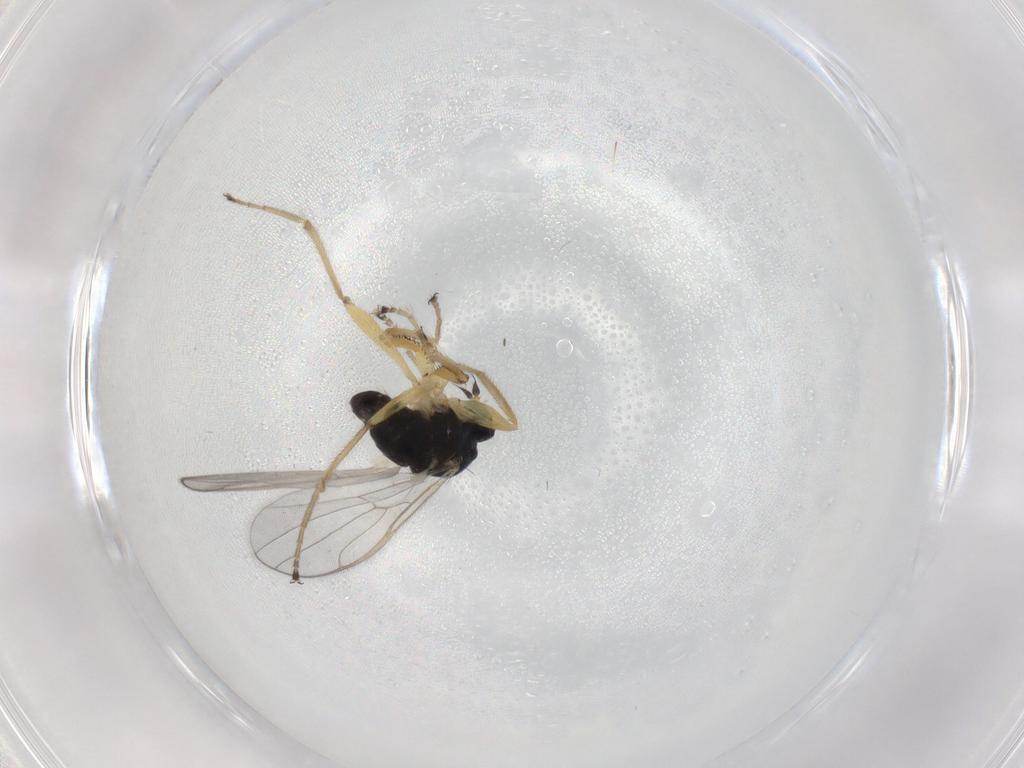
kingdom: Animalia
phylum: Arthropoda
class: Insecta
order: Diptera
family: Hybotidae
